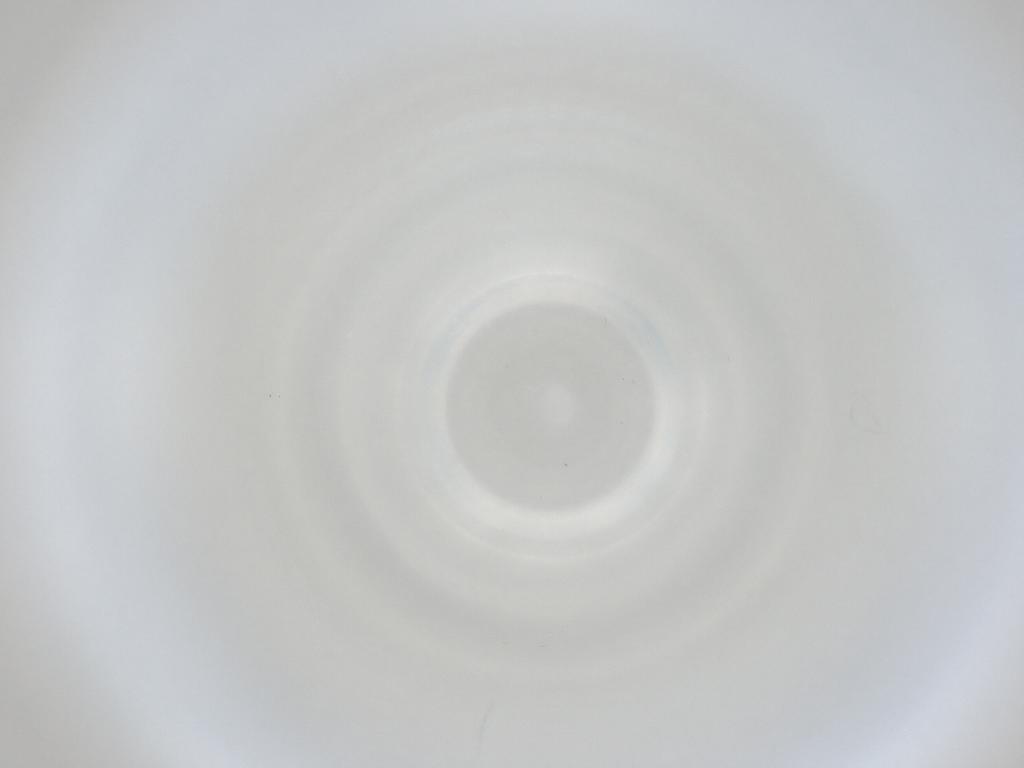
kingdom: Animalia
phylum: Arthropoda
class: Insecta
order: Diptera
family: Cecidomyiidae
